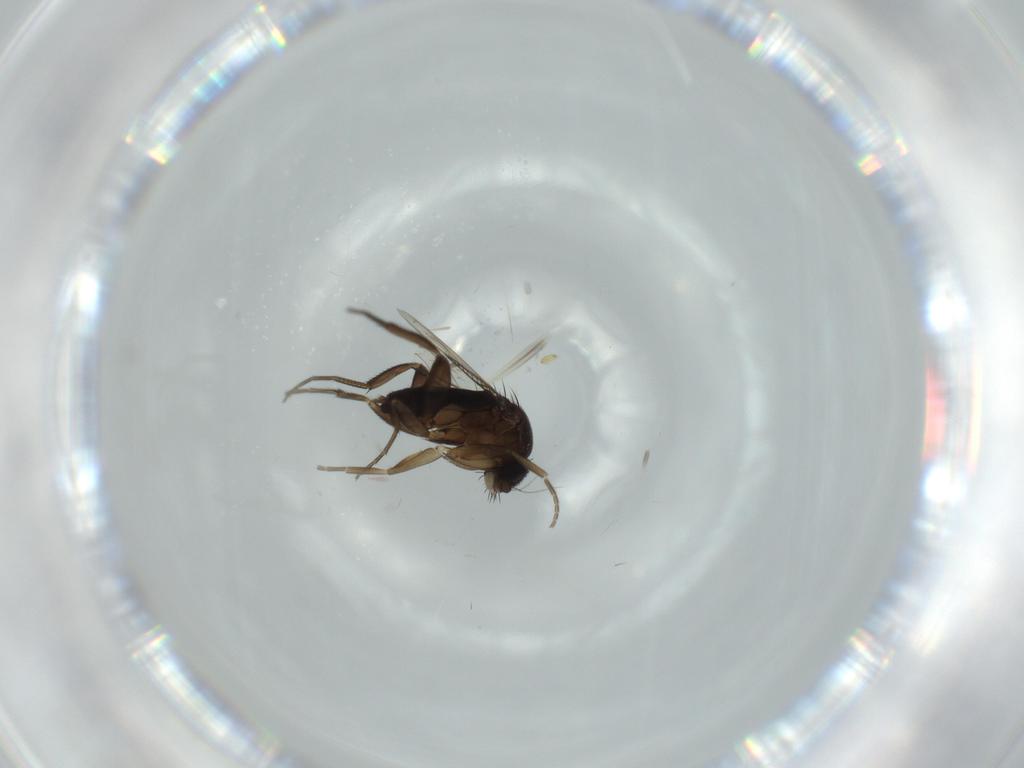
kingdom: Animalia
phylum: Arthropoda
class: Insecta
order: Diptera
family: Phoridae
